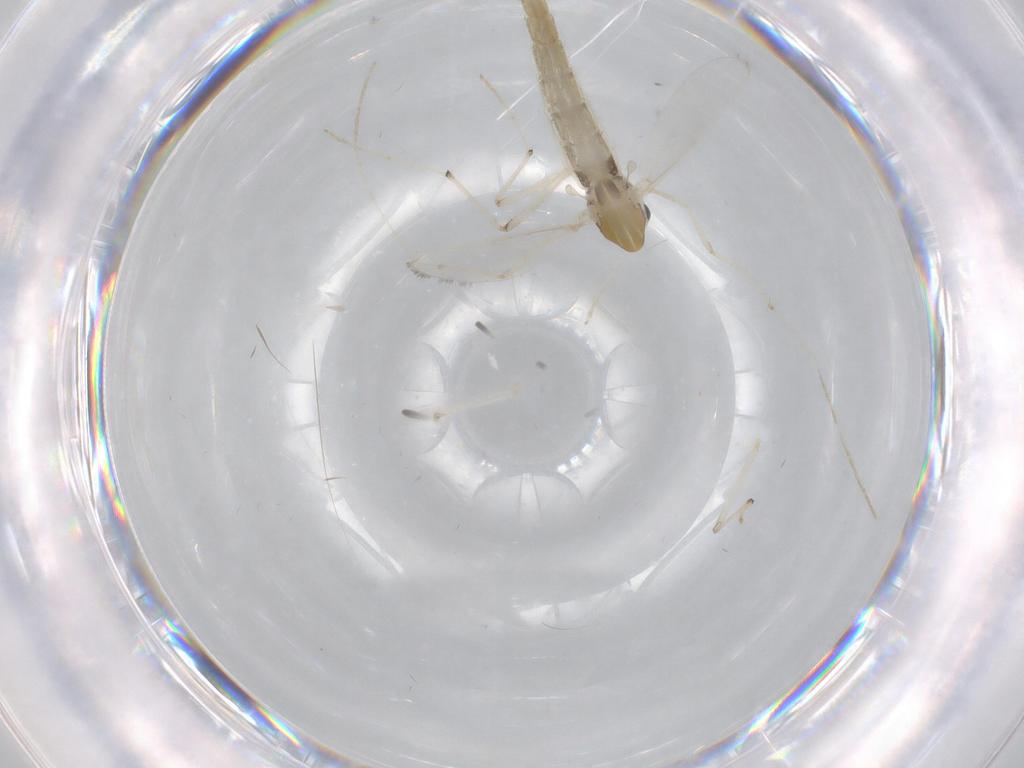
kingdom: Animalia
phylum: Arthropoda
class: Insecta
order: Diptera
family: Chironomidae
